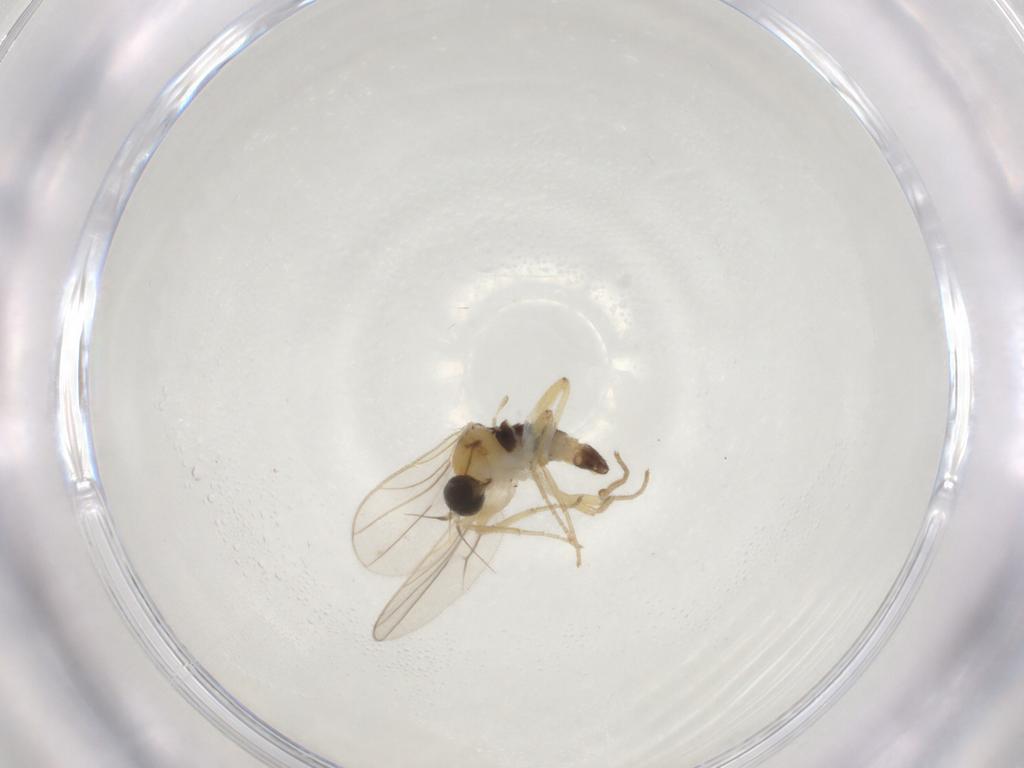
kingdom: Animalia
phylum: Arthropoda
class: Insecta
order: Diptera
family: Hybotidae
